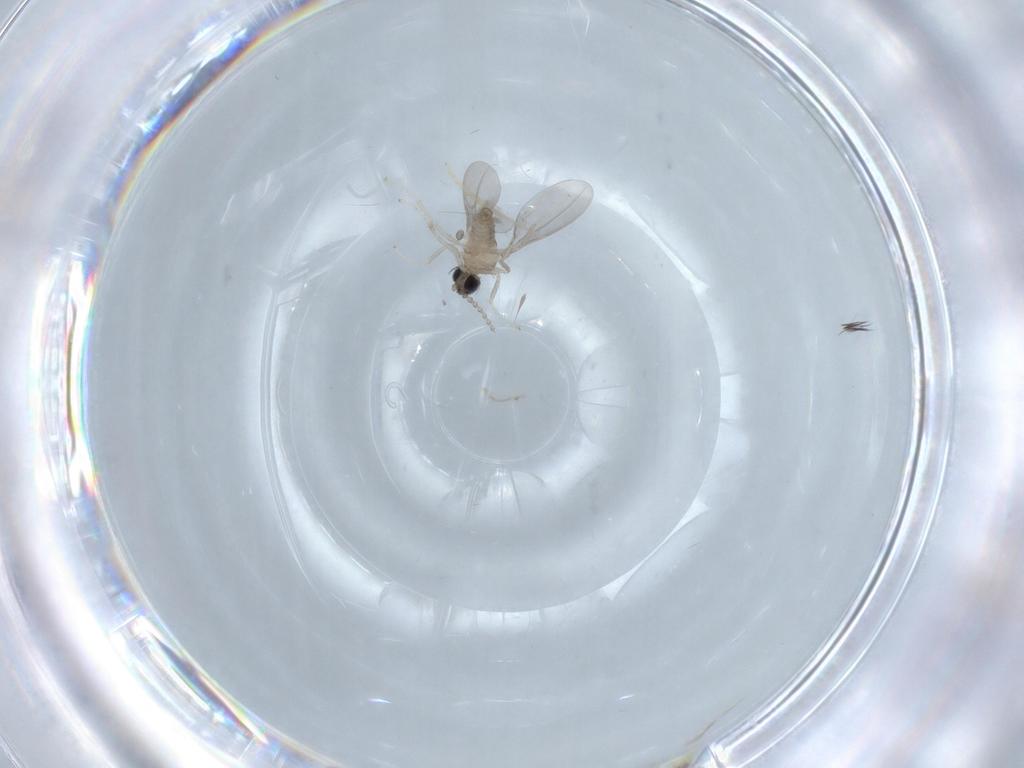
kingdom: Animalia
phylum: Arthropoda
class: Insecta
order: Diptera
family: Cecidomyiidae
